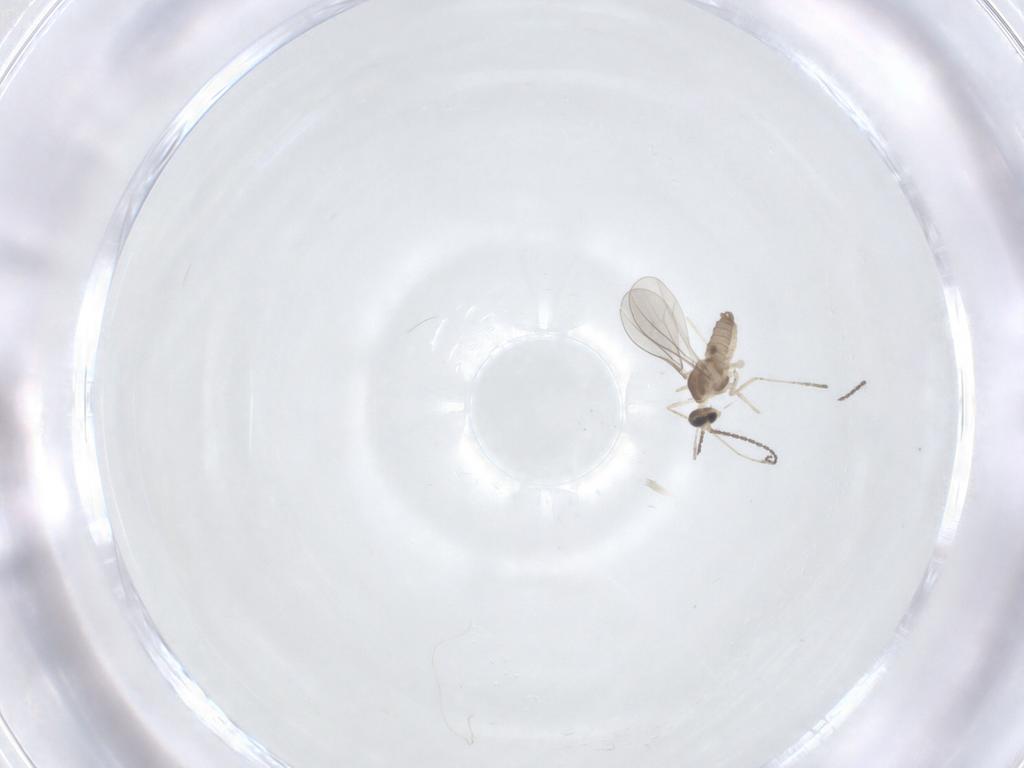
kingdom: Animalia
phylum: Arthropoda
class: Insecta
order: Diptera
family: Cecidomyiidae
